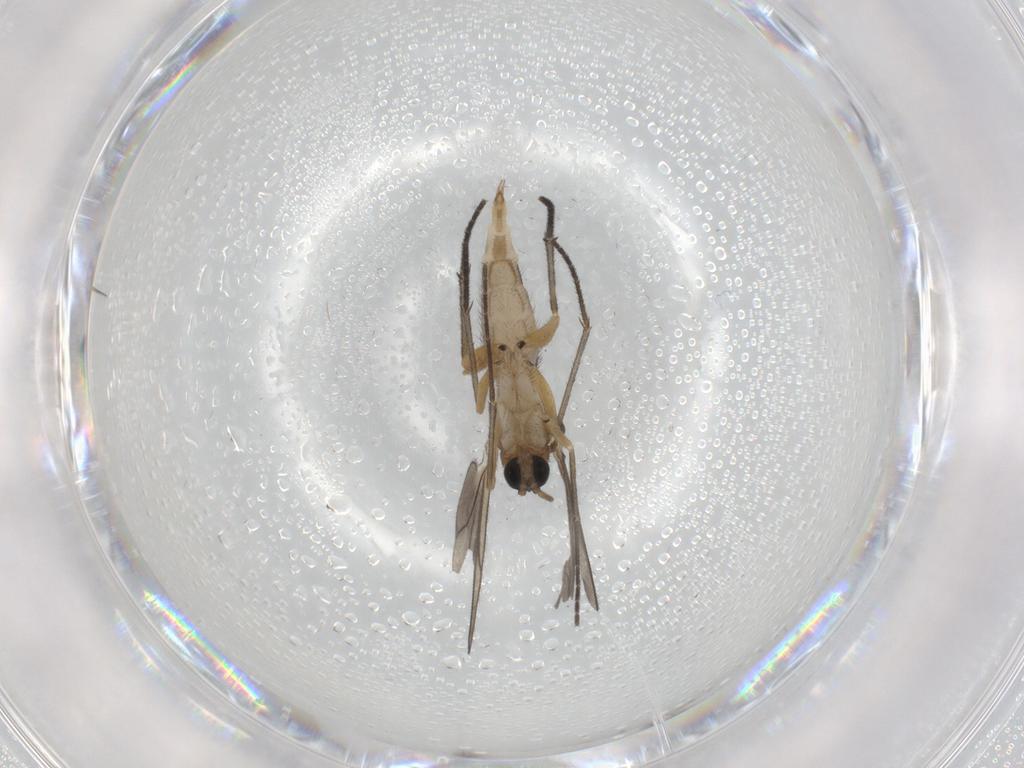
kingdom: Animalia
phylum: Arthropoda
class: Insecta
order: Diptera
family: Sciaridae
